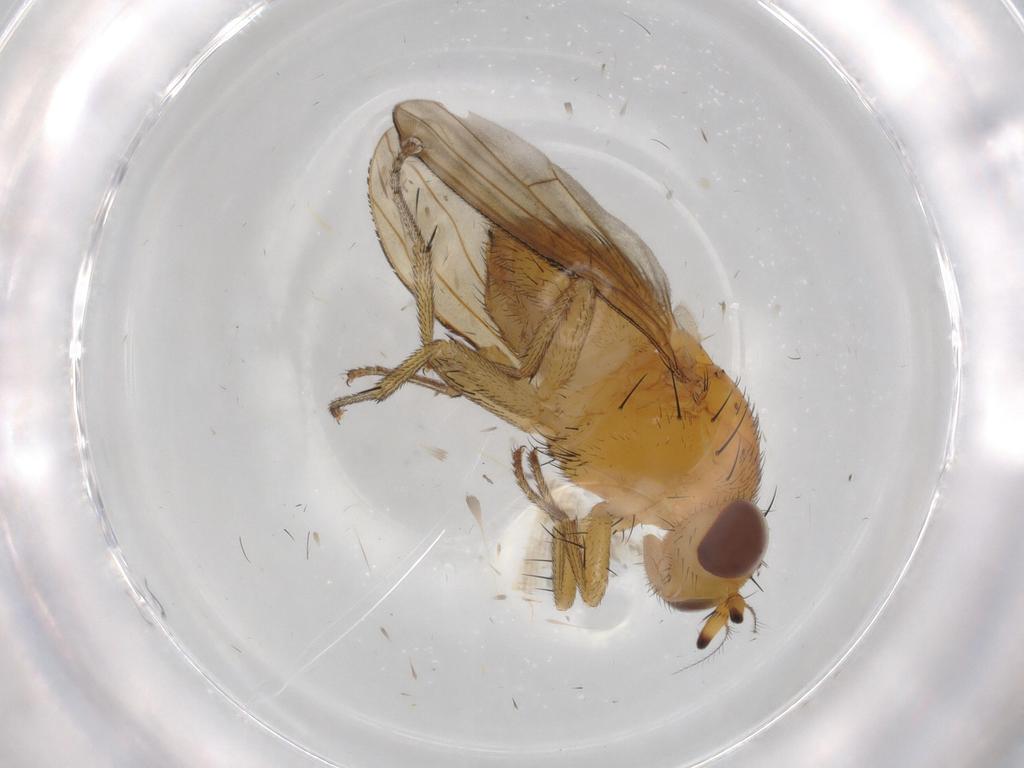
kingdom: Animalia
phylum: Arthropoda
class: Insecta
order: Diptera
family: Lauxaniidae
